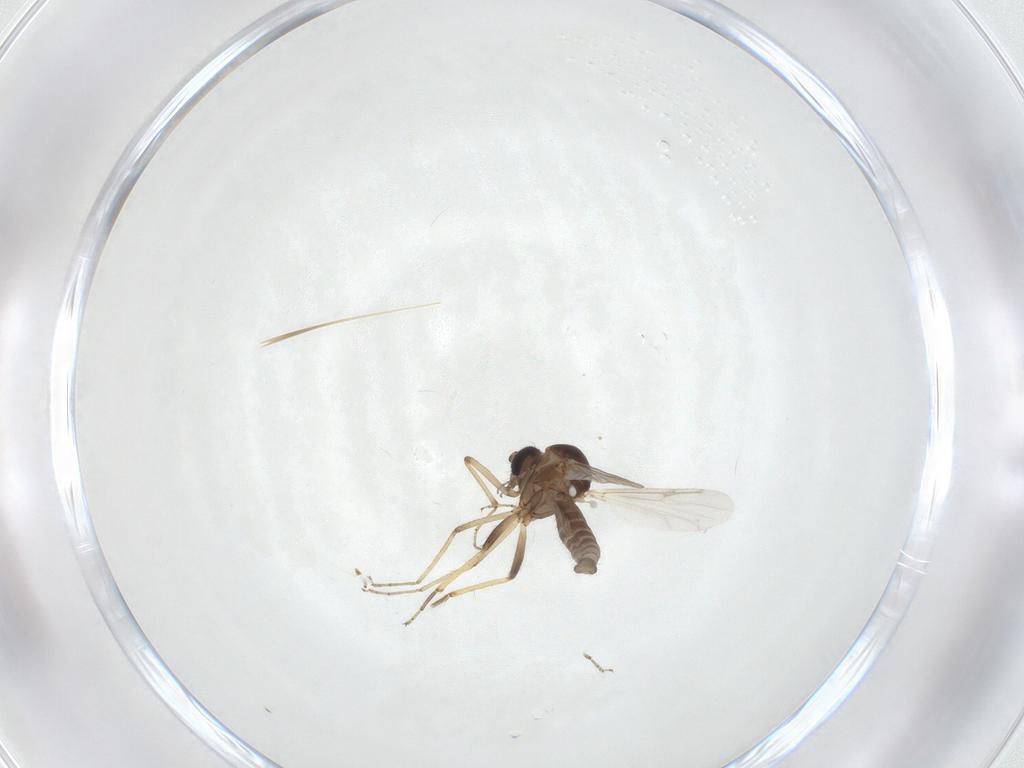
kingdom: Animalia
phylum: Arthropoda
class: Insecta
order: Diptera
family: Ceratopogonidae
